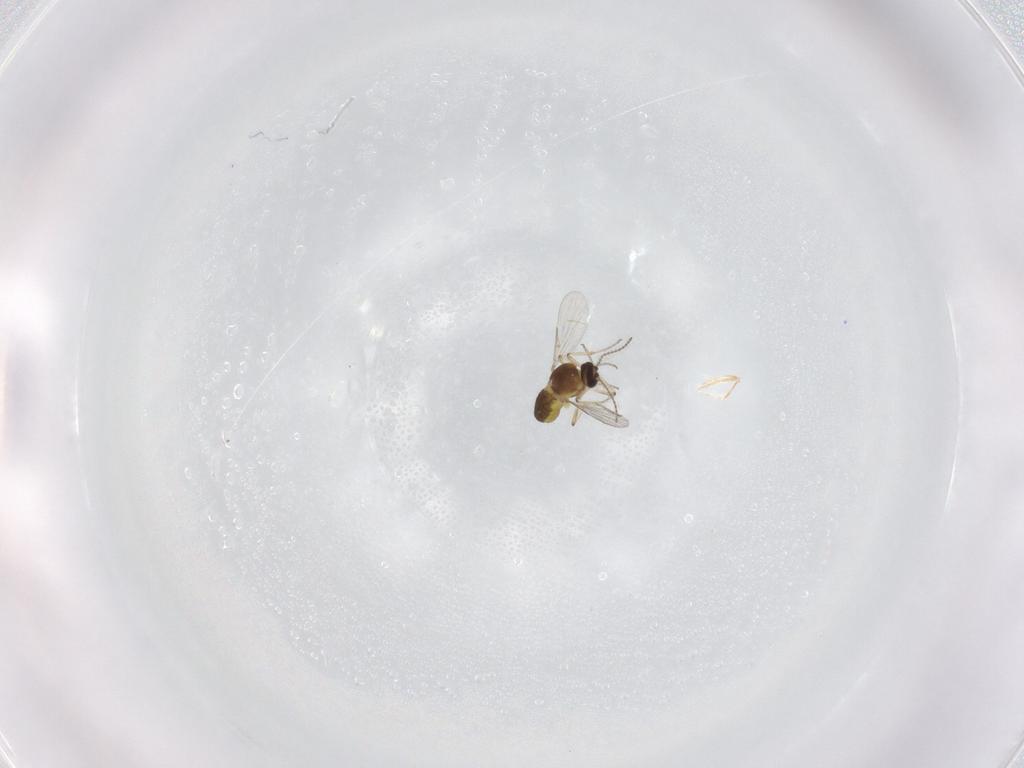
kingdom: Animalia
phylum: Arthropoda
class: Insecta
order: Diptera
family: Ceratopogonidae
